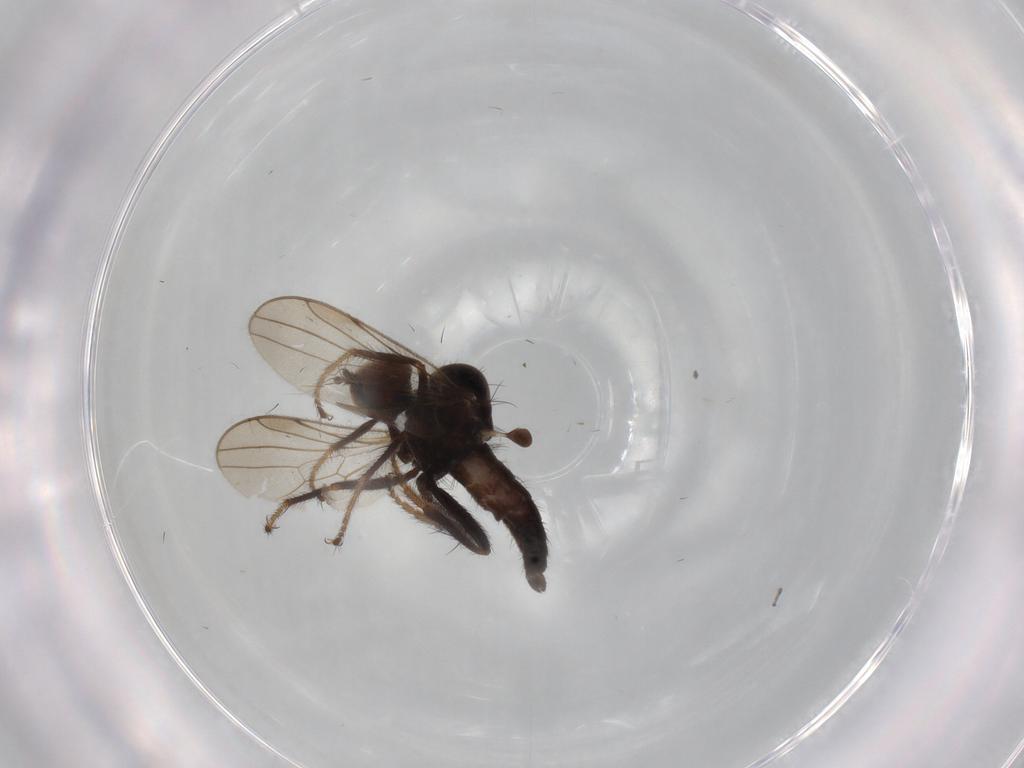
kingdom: Animalia
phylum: Arthropoda
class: Insecta
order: Diptera
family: Hybotidae
